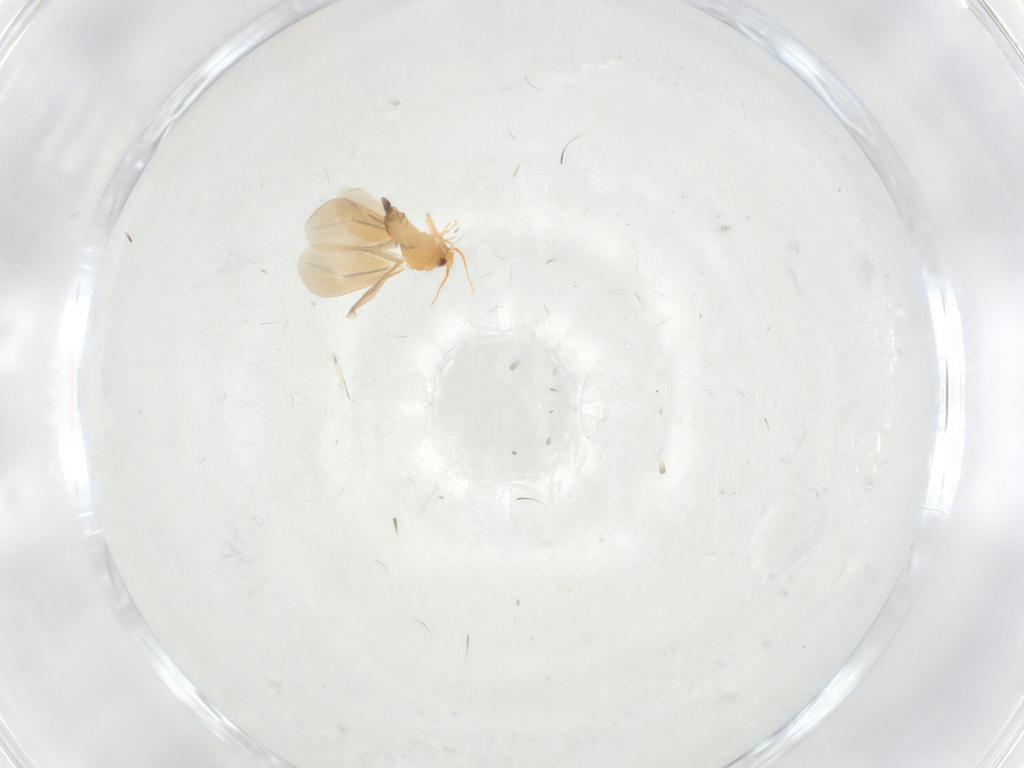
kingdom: Animalia
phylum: Arthropoda
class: Insecta
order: Hemiptera
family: Aleyrodidae
